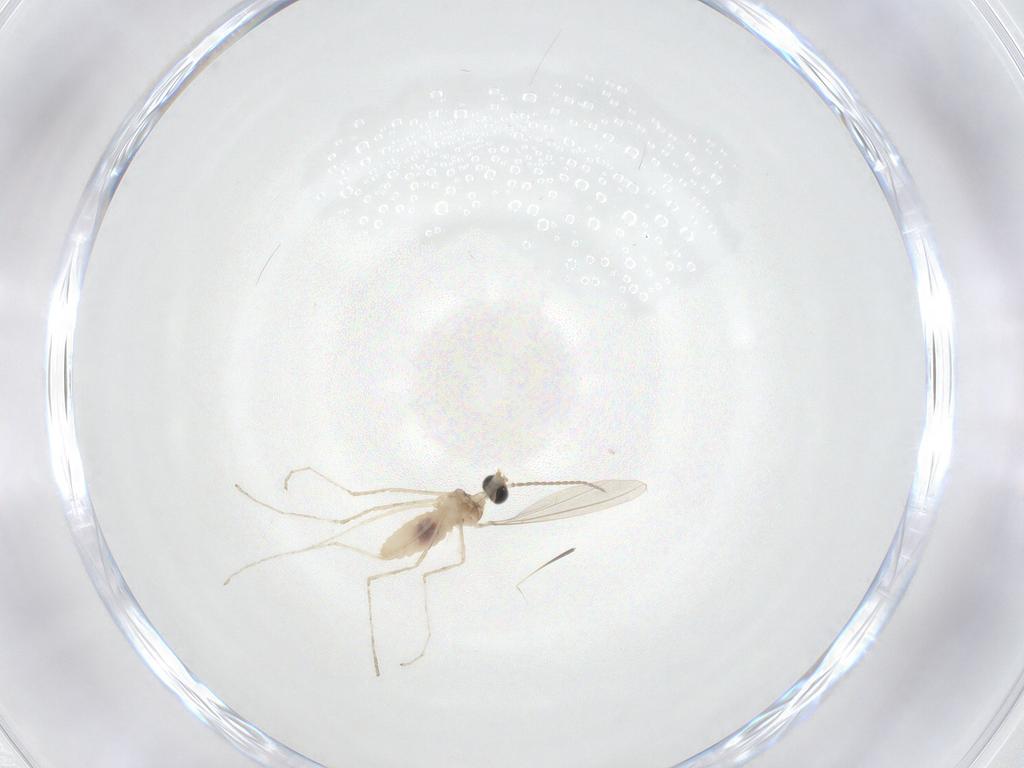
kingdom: Animalia
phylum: Arthropoda
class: Insecta
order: Diptera
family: Cecidomyiidae
